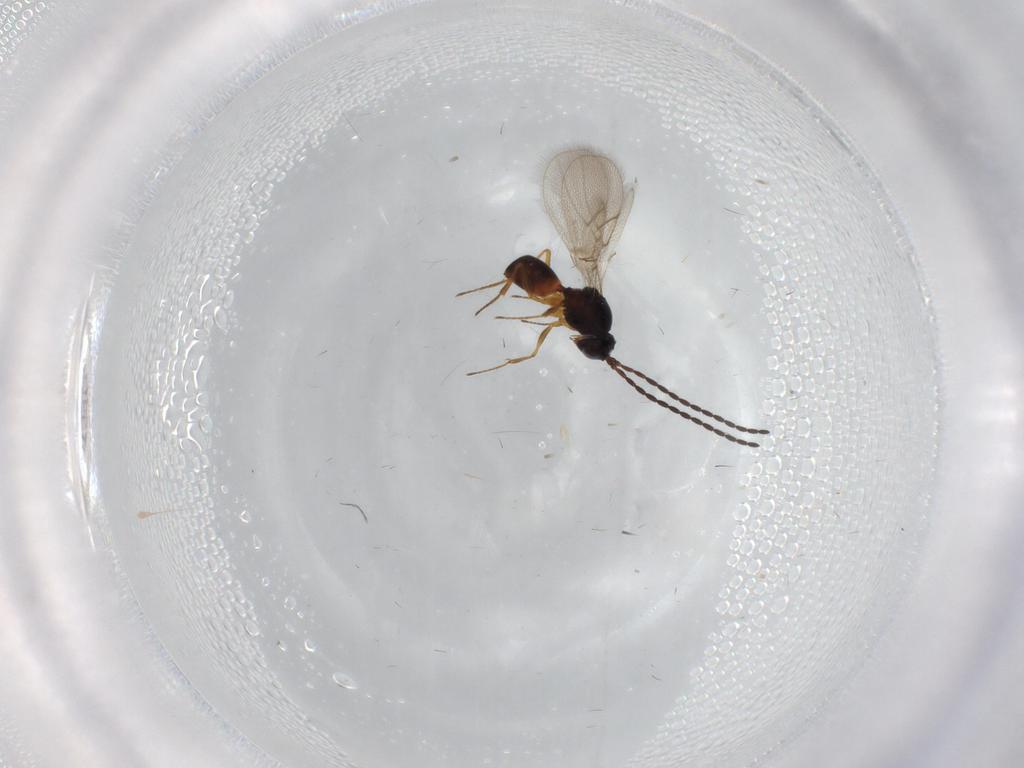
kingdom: Animalia
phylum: Arthropoda
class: Insecta
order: Hymenoptera
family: Figitidae
